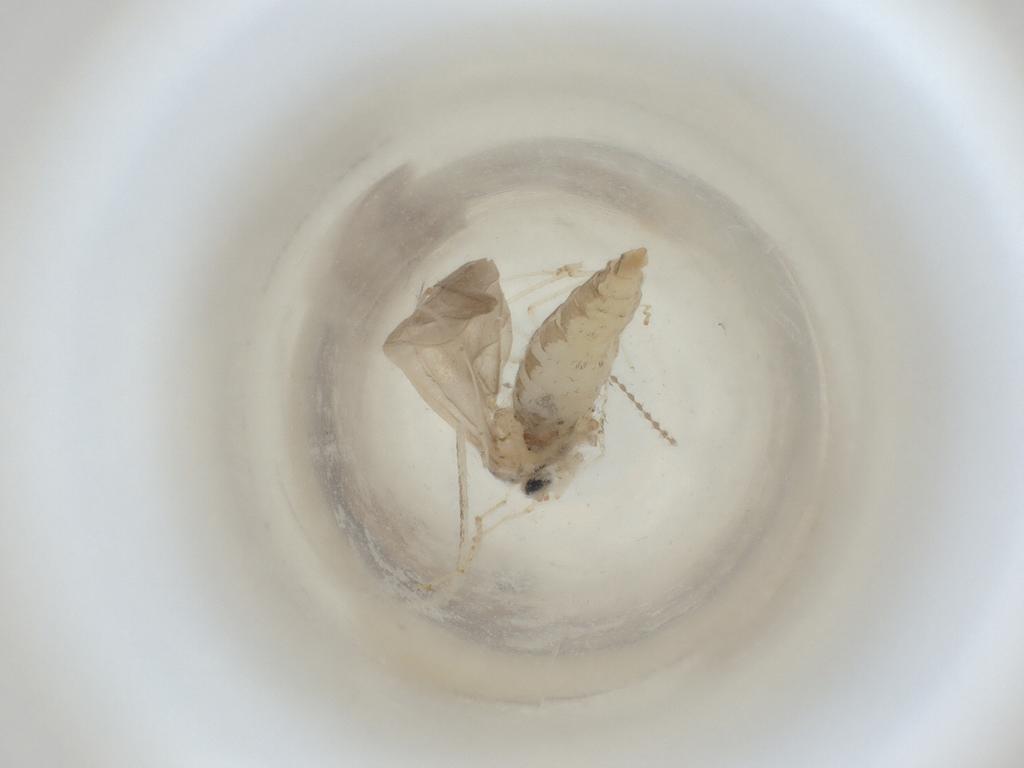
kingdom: Animalia
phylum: Arthropoda
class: Insecta
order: Diptera
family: Cecidomyiidae
